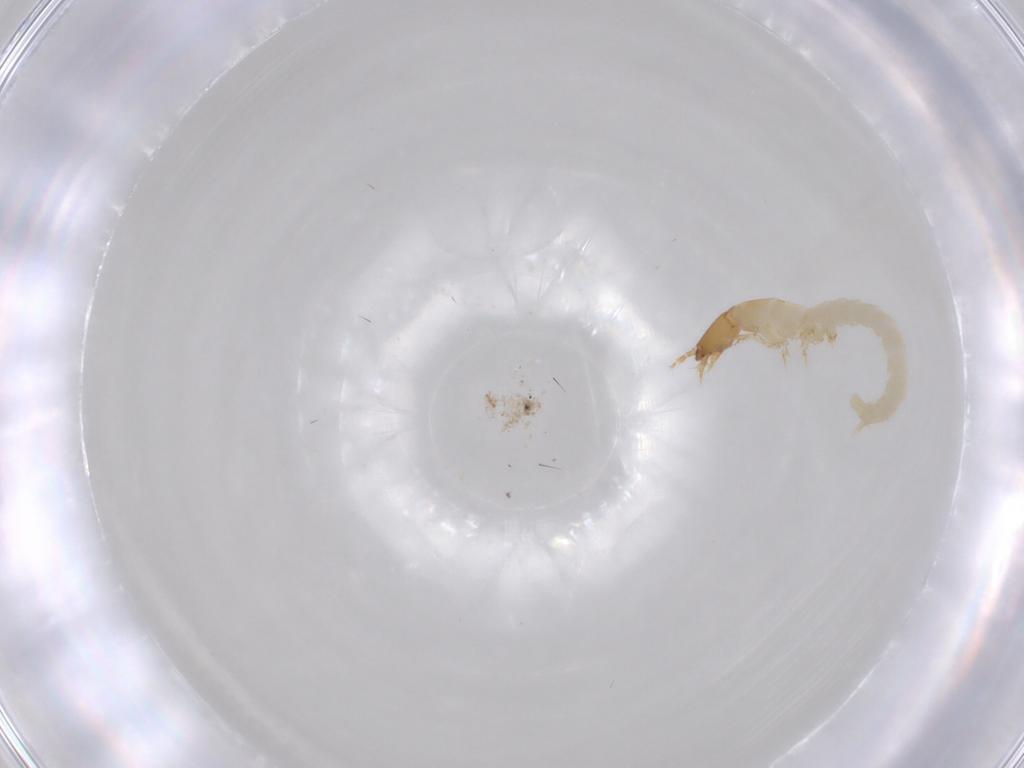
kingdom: Animalia
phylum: Arthropoda
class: Insecta
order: Coleoptera
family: Staphylinidae
